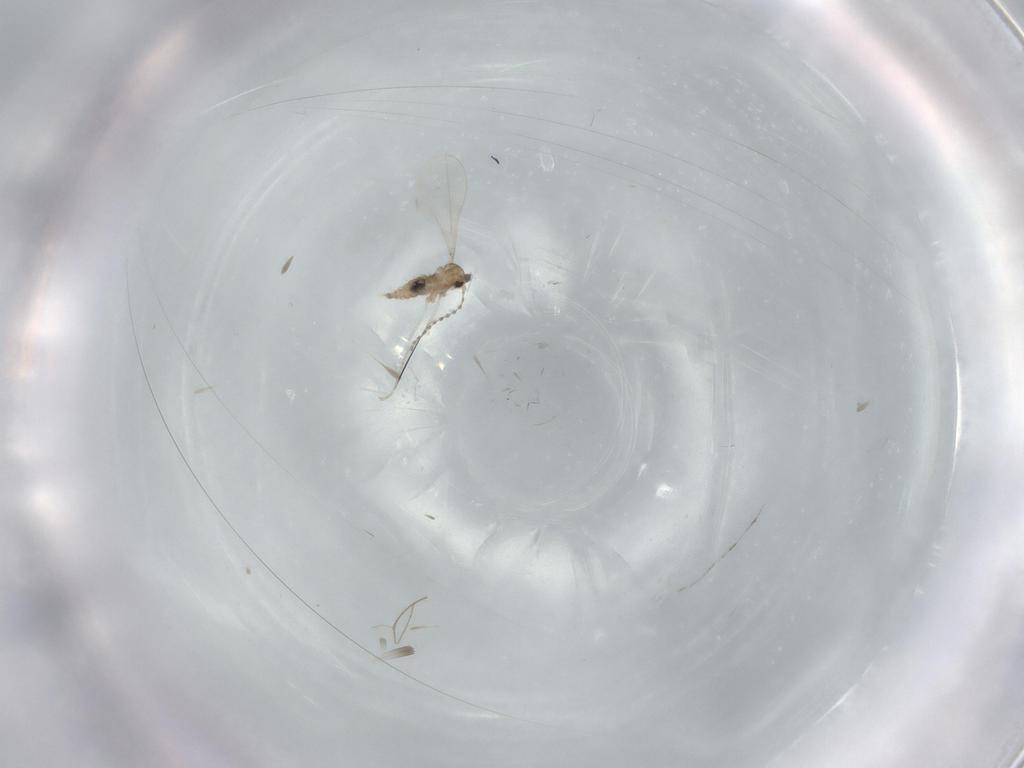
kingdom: Animalia
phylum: Arthropoda
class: Insecta
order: Diptera
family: Cecidomyiidae
